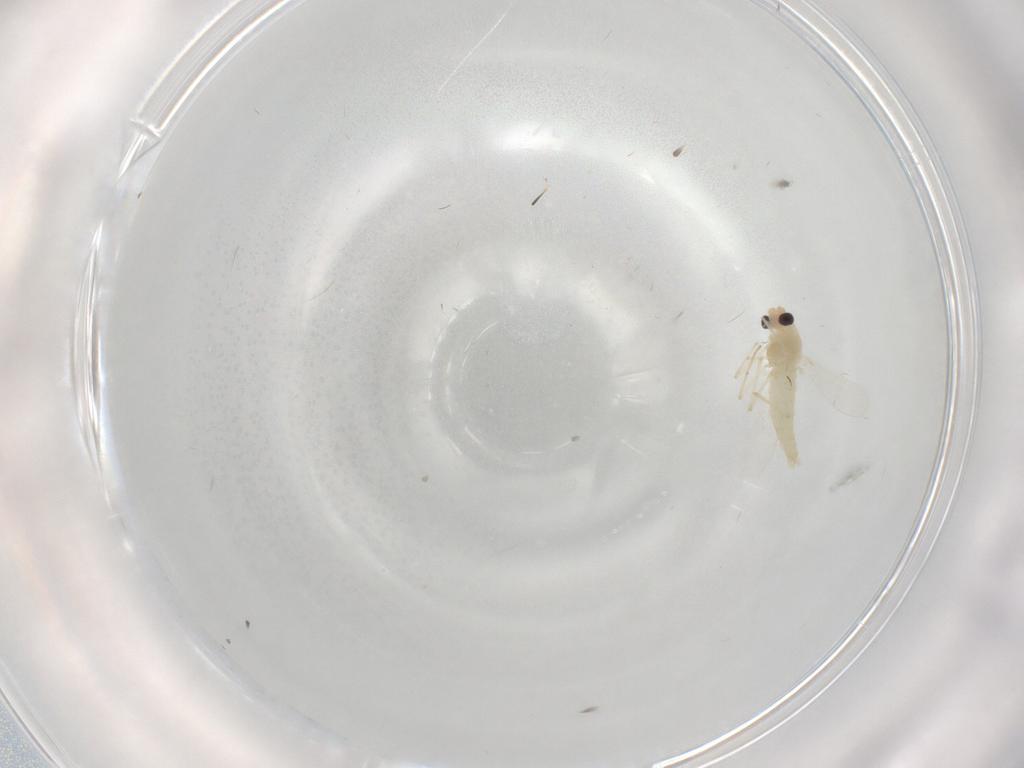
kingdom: Animalia
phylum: Arthropoda
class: Insecta
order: Diptera
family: Chironomidae
